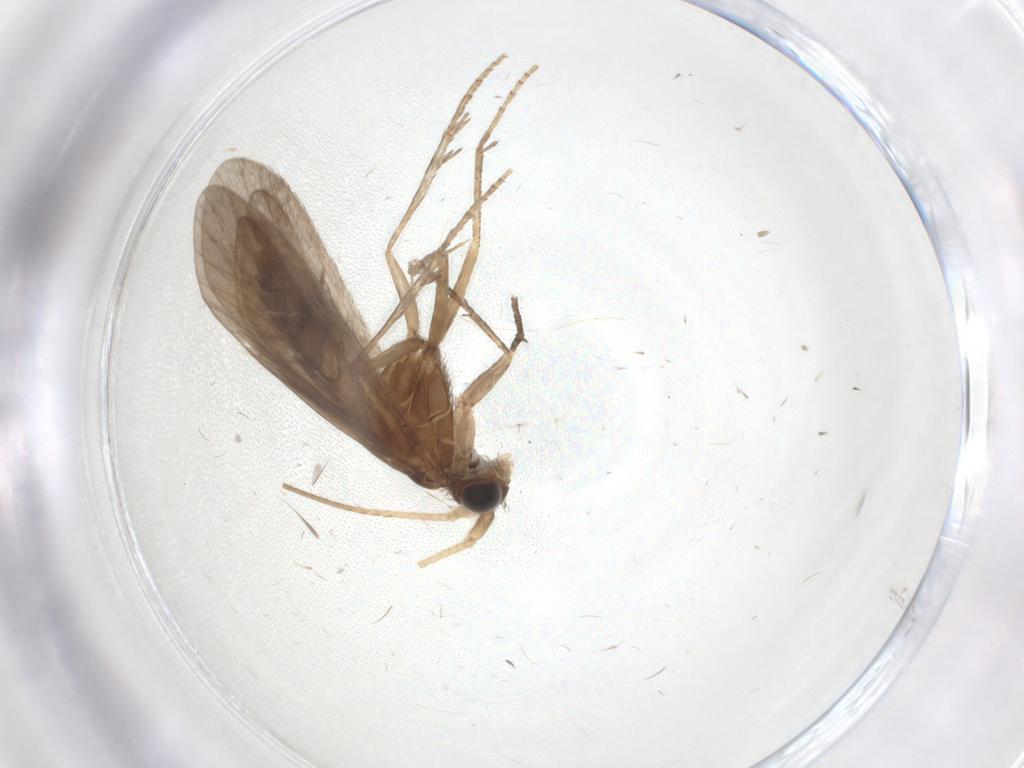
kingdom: Animalia
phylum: Arthropoda
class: Insecta
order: Trichoptera
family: Helicopsychidae
